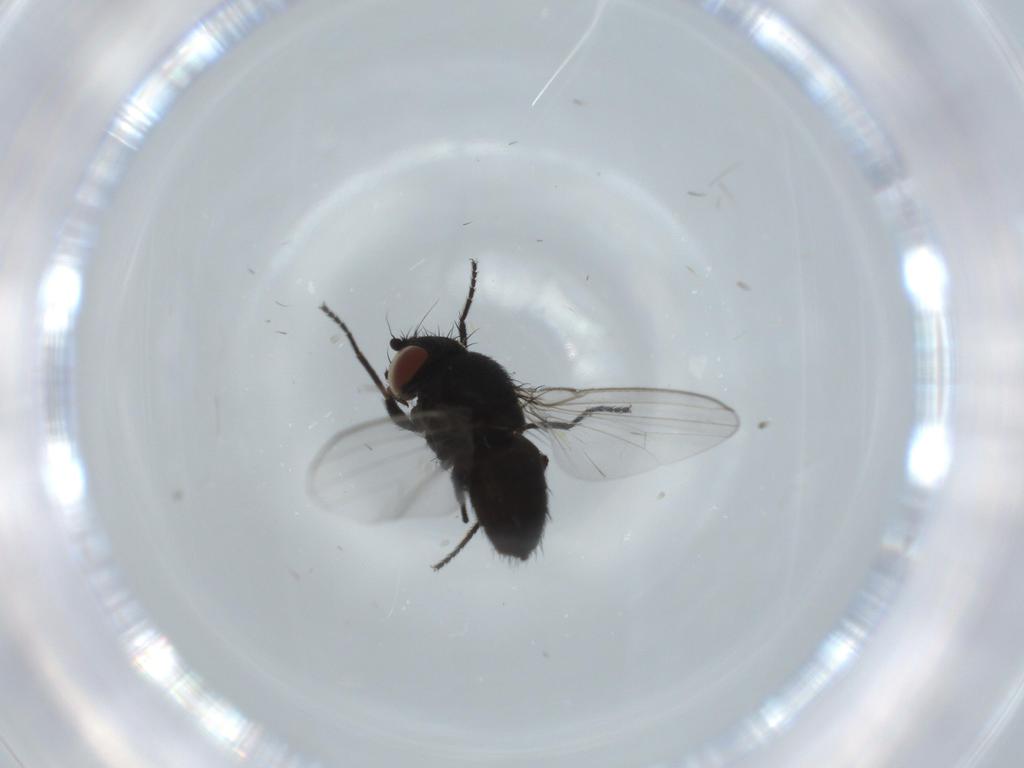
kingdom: Animalia
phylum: Arthropoda
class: Insecta
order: Diptera
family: Milichiidae
